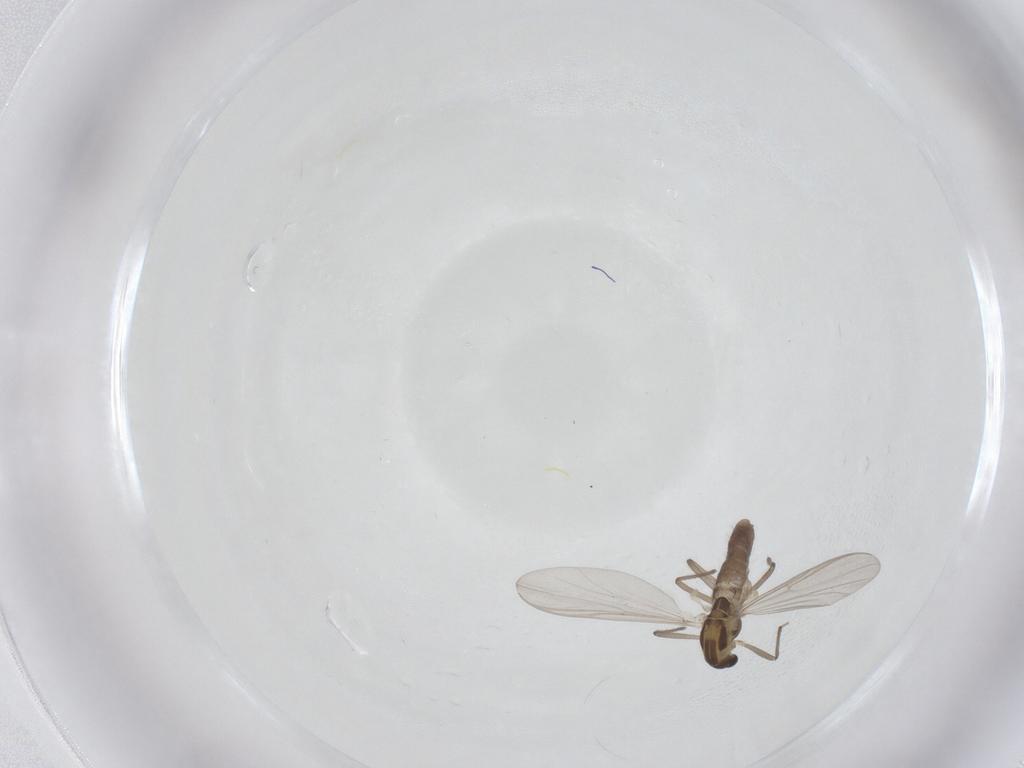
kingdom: Animalia
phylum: Arthropoda
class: Insecta
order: Diptera
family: Chironomidae
